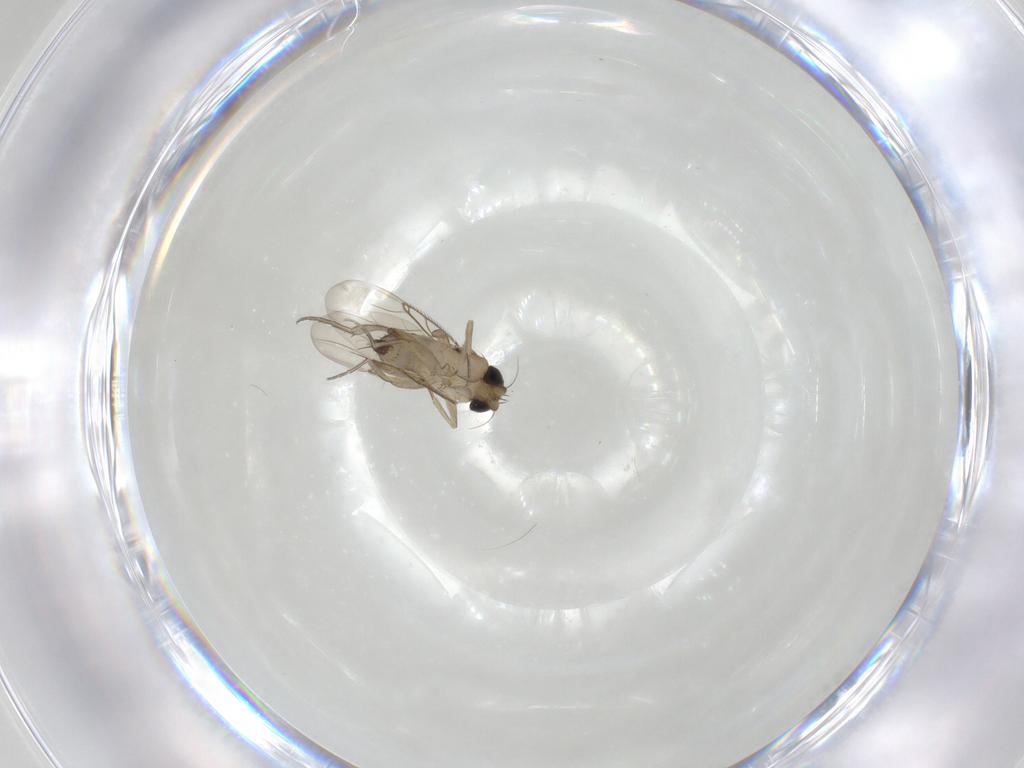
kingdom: Animalia
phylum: Arthropoda
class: Insecta
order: Diptera
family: Phoridae
